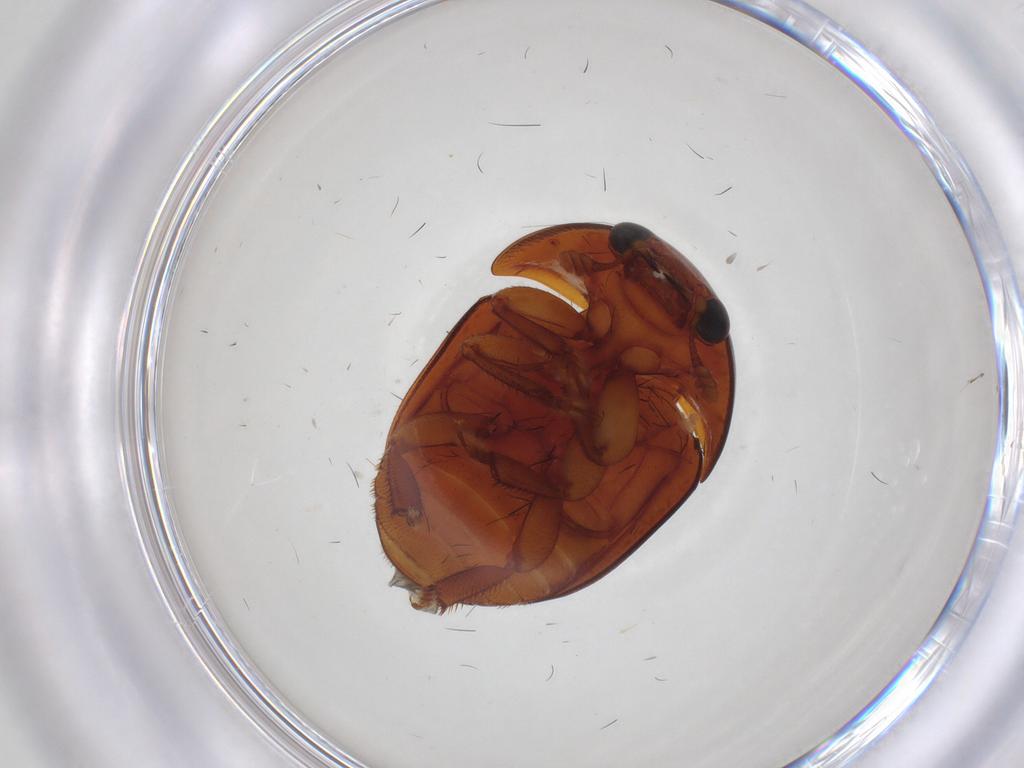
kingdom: Animalia
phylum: Arthropoda
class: Insecta
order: Coleoptera
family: Nitidulidae
